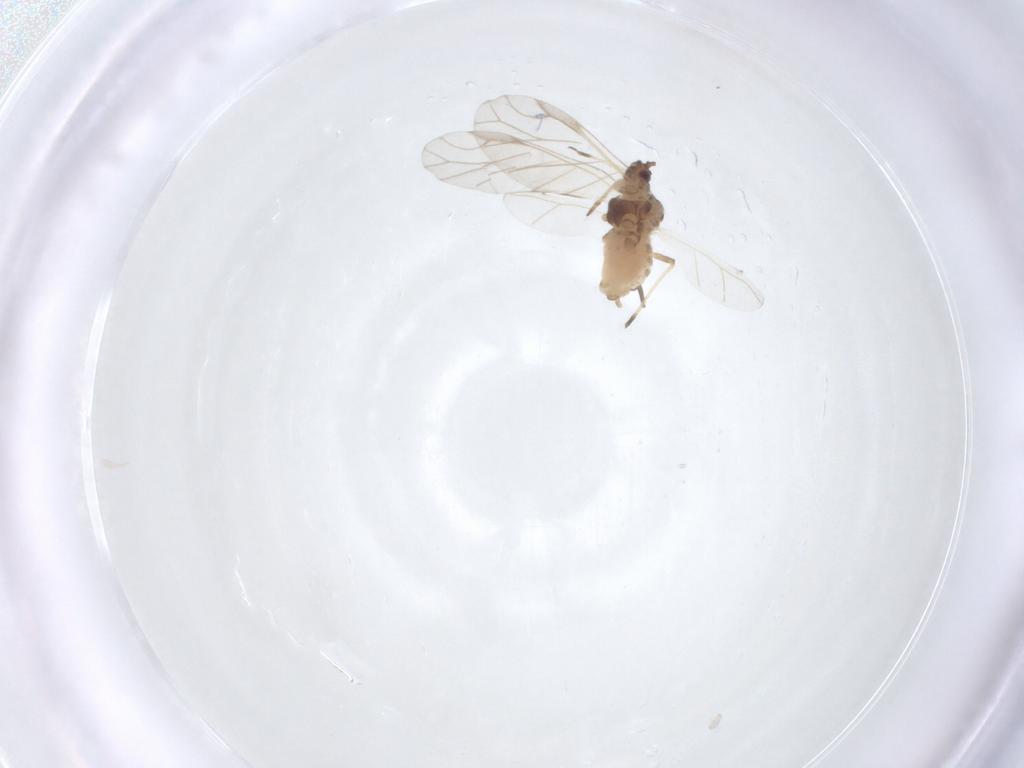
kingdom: Animalia
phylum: Arthropoda
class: Insecta
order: Hemiptera
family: Aphididae
